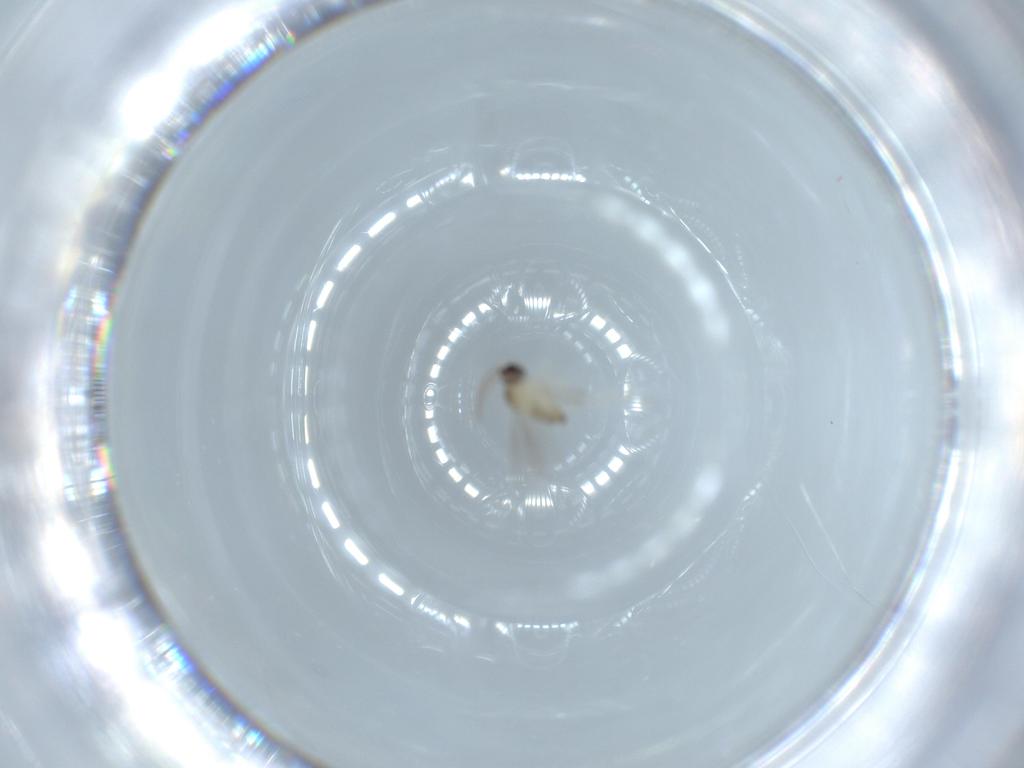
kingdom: Animalia
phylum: Arthropoda
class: Insecta
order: Diptera
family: Cecidomyiidae
